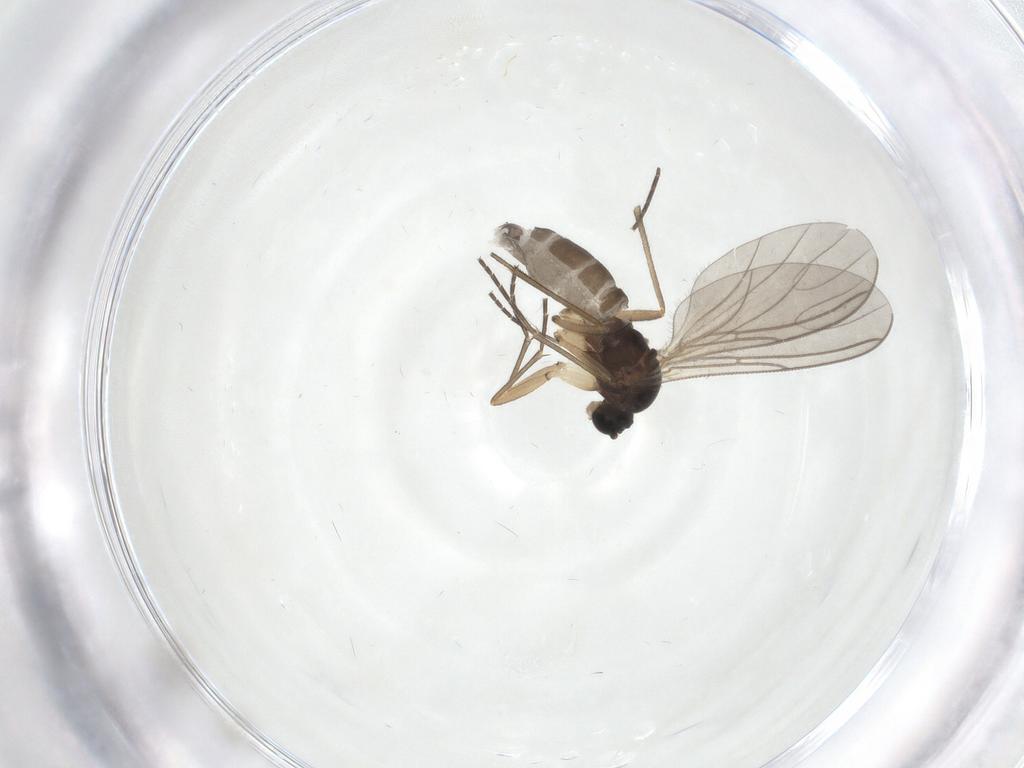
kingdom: Animalia
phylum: Arthropoda
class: Insecta
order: Diptera
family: Sciaridae
